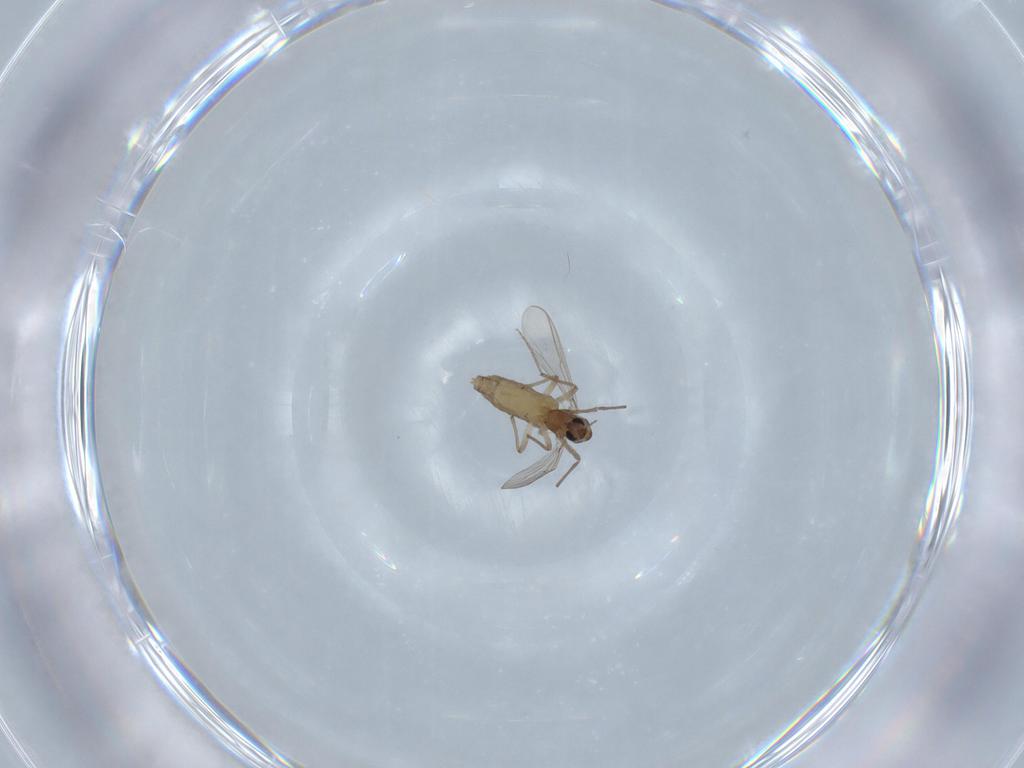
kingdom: Animalia
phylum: Arthropoda
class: Insecta
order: Diptera
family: Chironomidae
